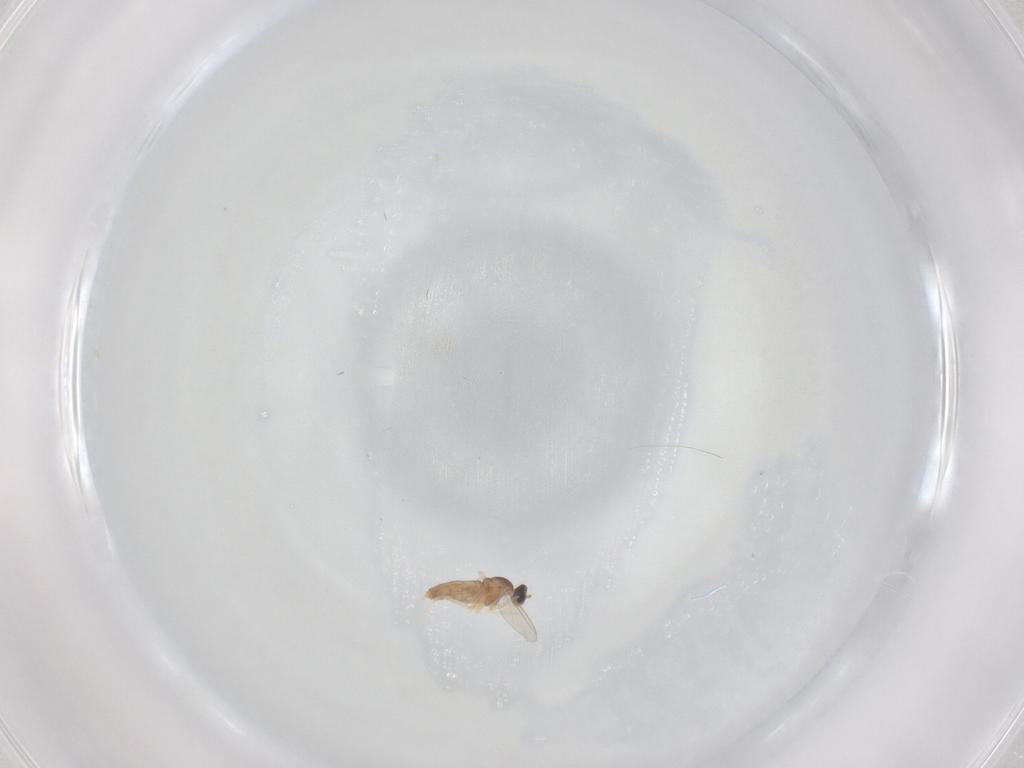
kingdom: Animalia
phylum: Arthropoda
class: Insecta
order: Diptera
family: Cecidomyiidae
